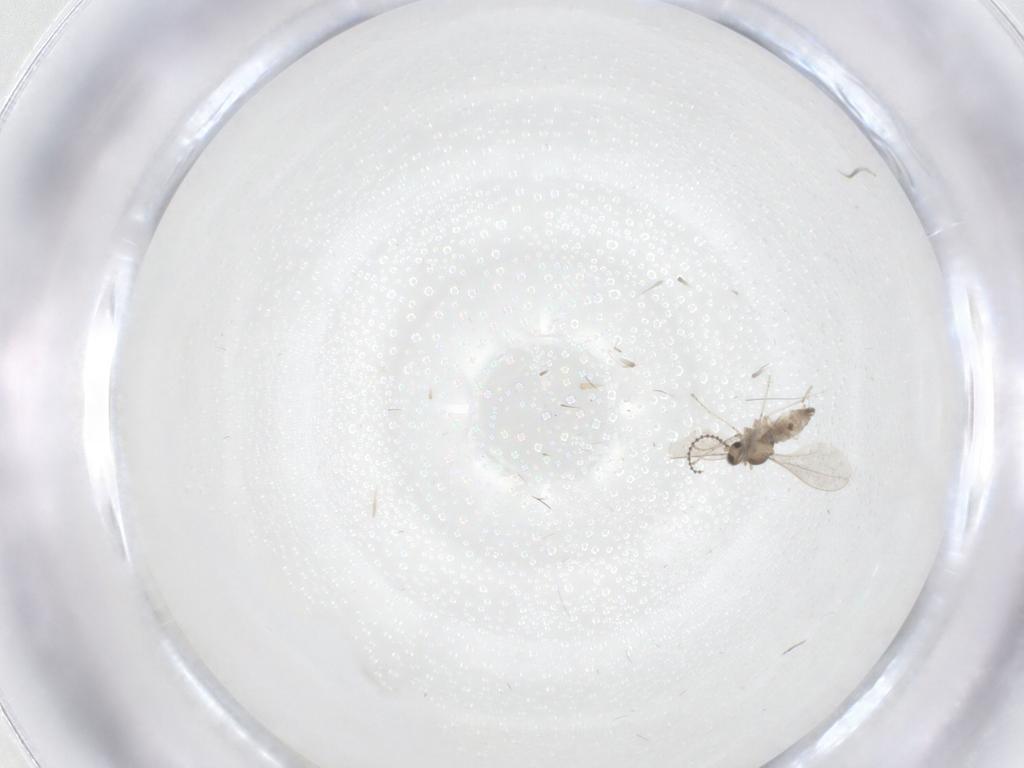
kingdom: Animalia
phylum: Arthropoda
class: Insecta
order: Diptera
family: Cecidomyiidae
